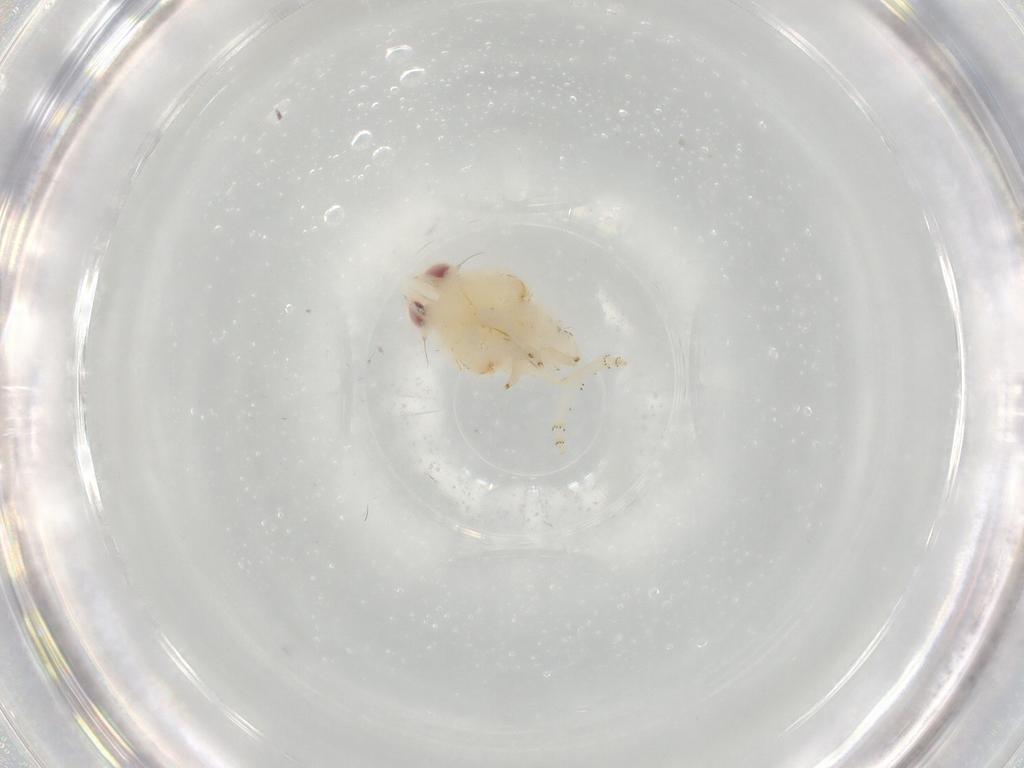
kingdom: Animalia
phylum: Arthropoda
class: Insecta
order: Hemiptera
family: Nogodinidae
